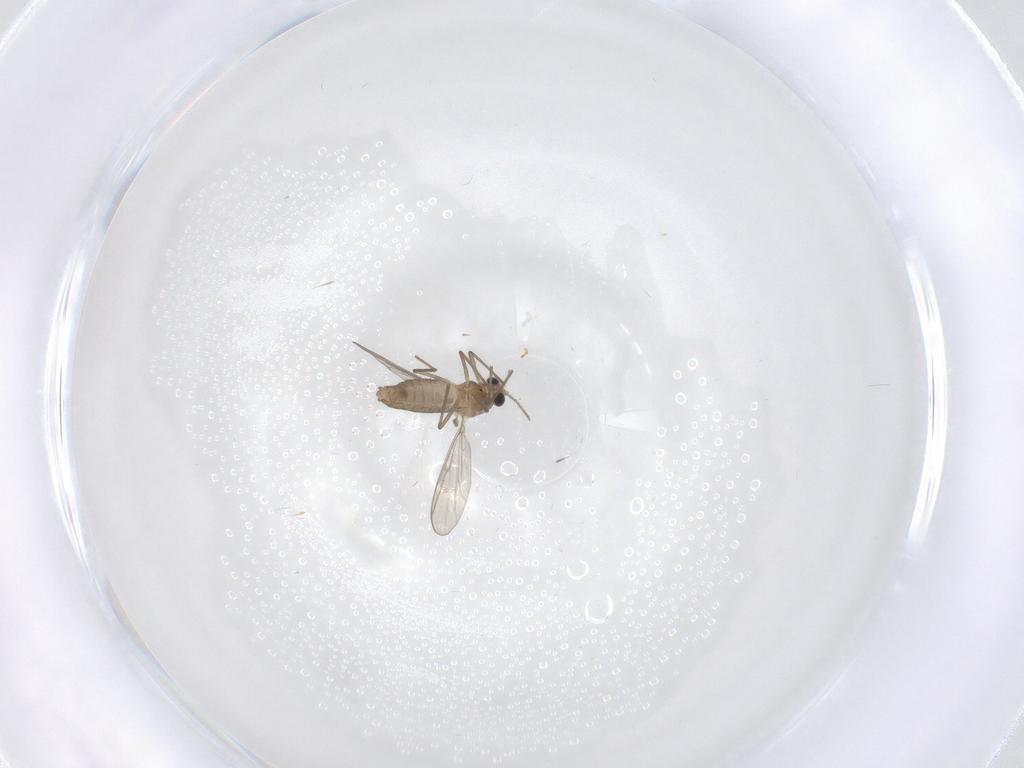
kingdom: Animalia
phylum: Arthropoda
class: Insecta
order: Diptera
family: Chironomidae
